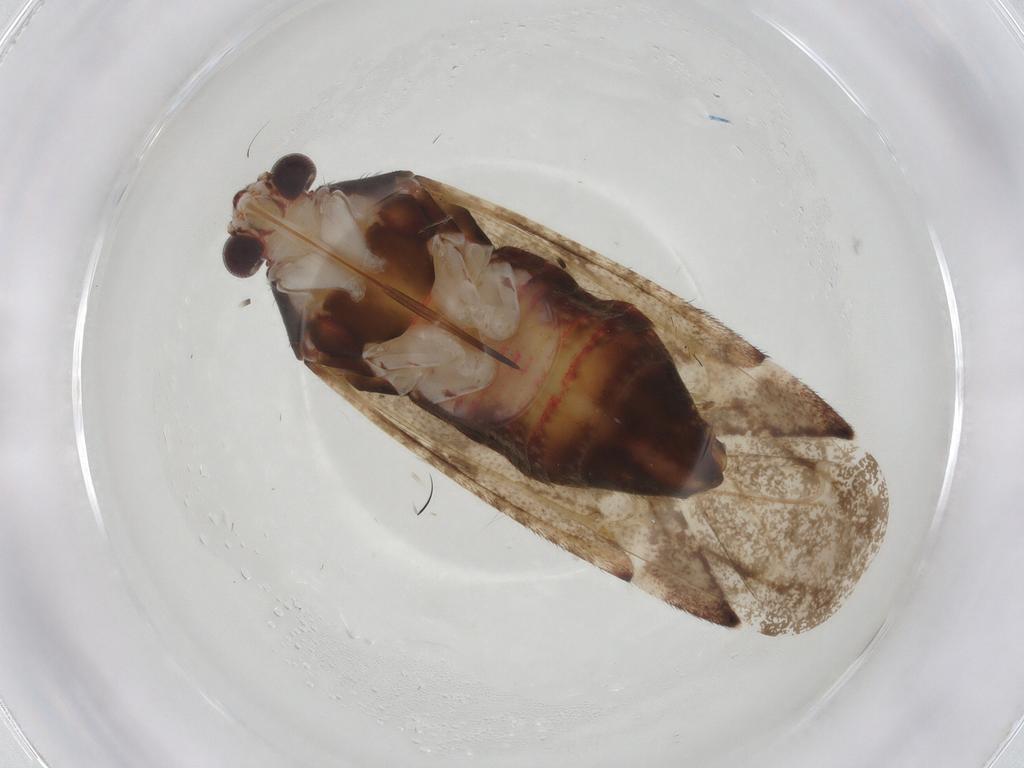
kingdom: Animalia
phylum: Arthropoda
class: Insecta
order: Hemiptera
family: Miridae
